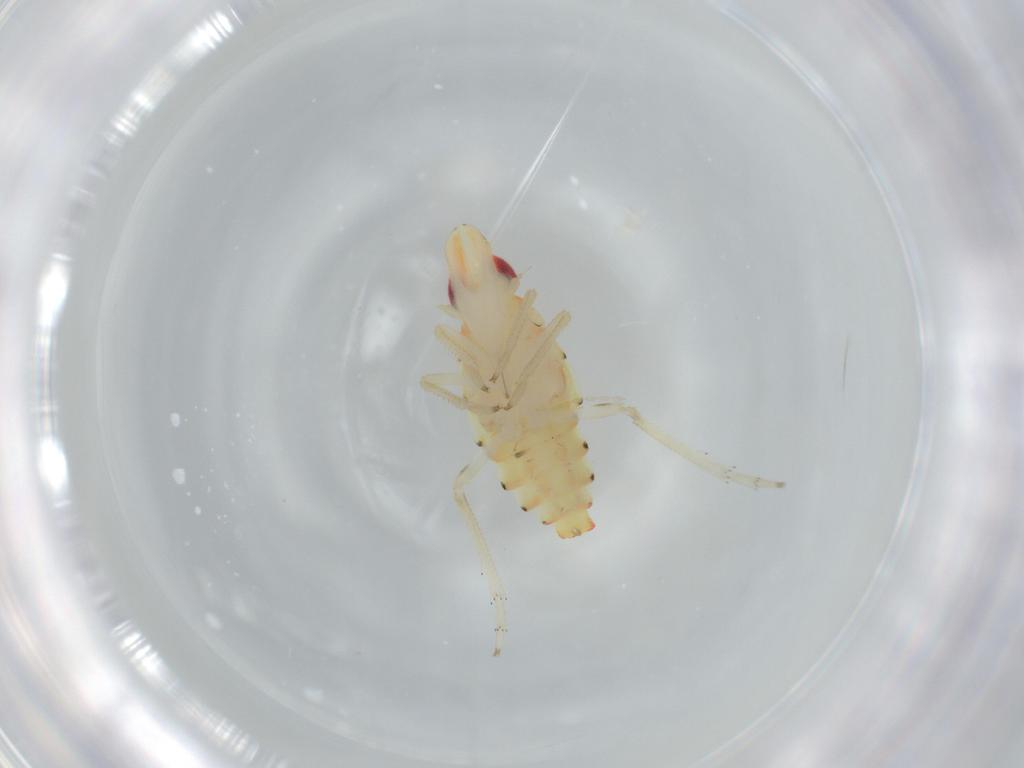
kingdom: Animalia
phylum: Arthropoda
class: Insecta
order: Hemiptera
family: Tropiduchidae
